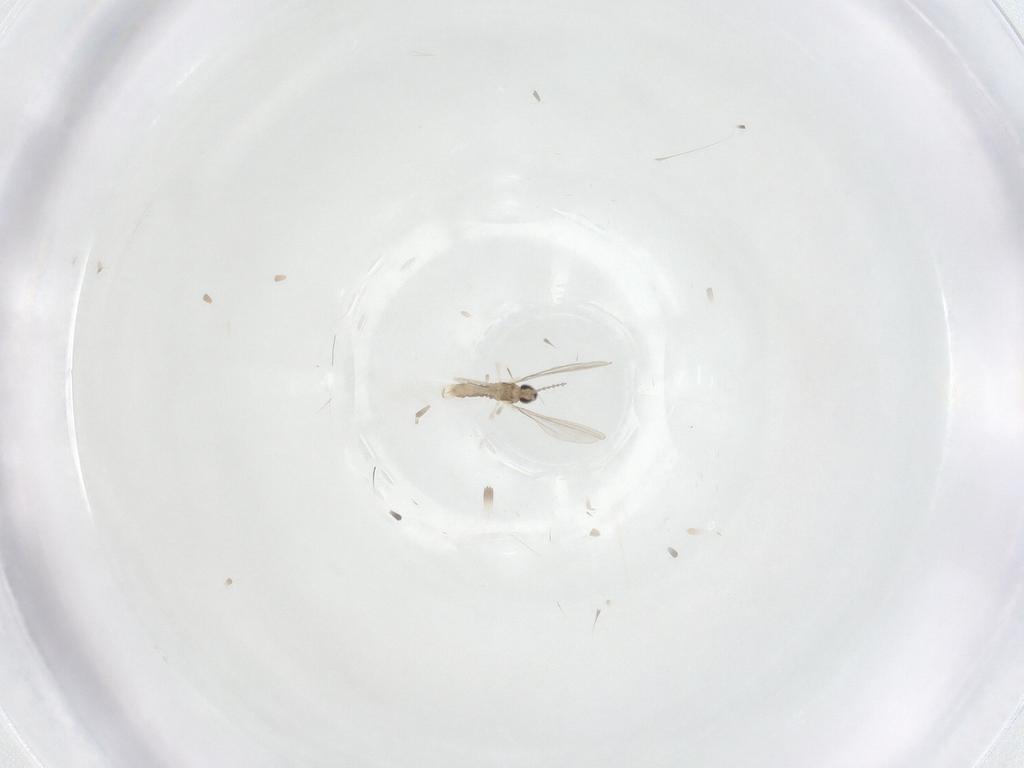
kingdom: Animalia
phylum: Arthropoda
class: Insecta
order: Diptera
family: Cecidomyiidae
